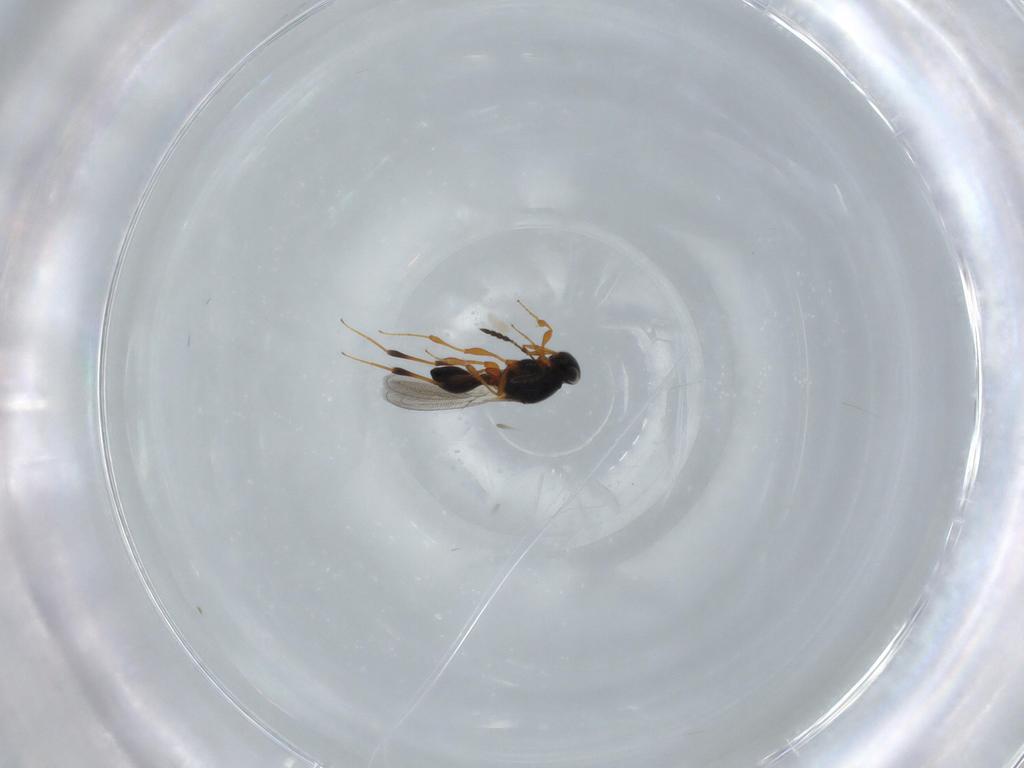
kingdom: Animalia
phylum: Arthropoda
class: Insecta
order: Hymenoptera
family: Platygastridae
